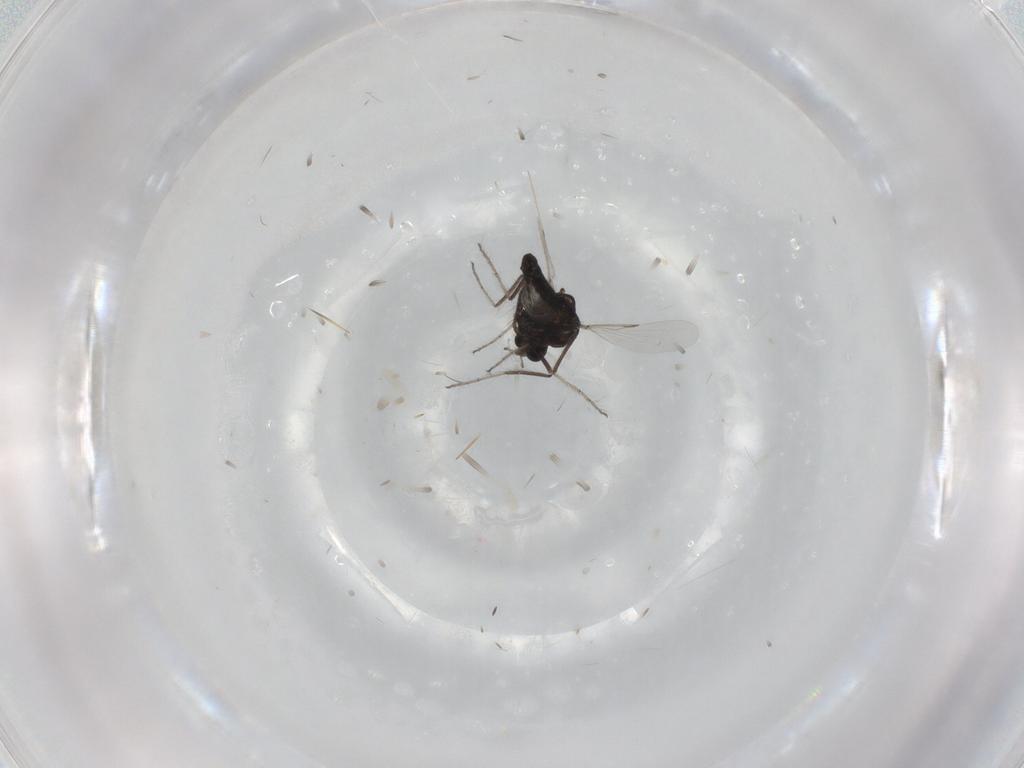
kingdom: Animalia
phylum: Arthropoda
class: Insecta
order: Diptera
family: Ceratopogonidae
